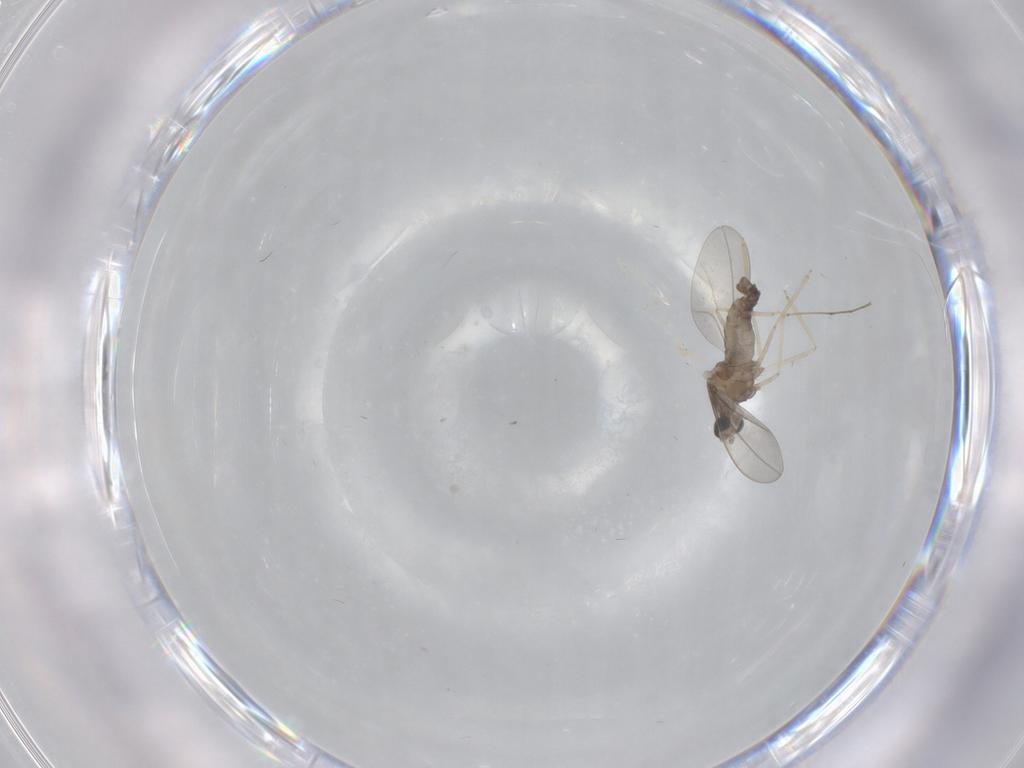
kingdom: Animalia
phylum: Arthropoda
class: Insecta
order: Diptera
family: Cecidomyiidae
